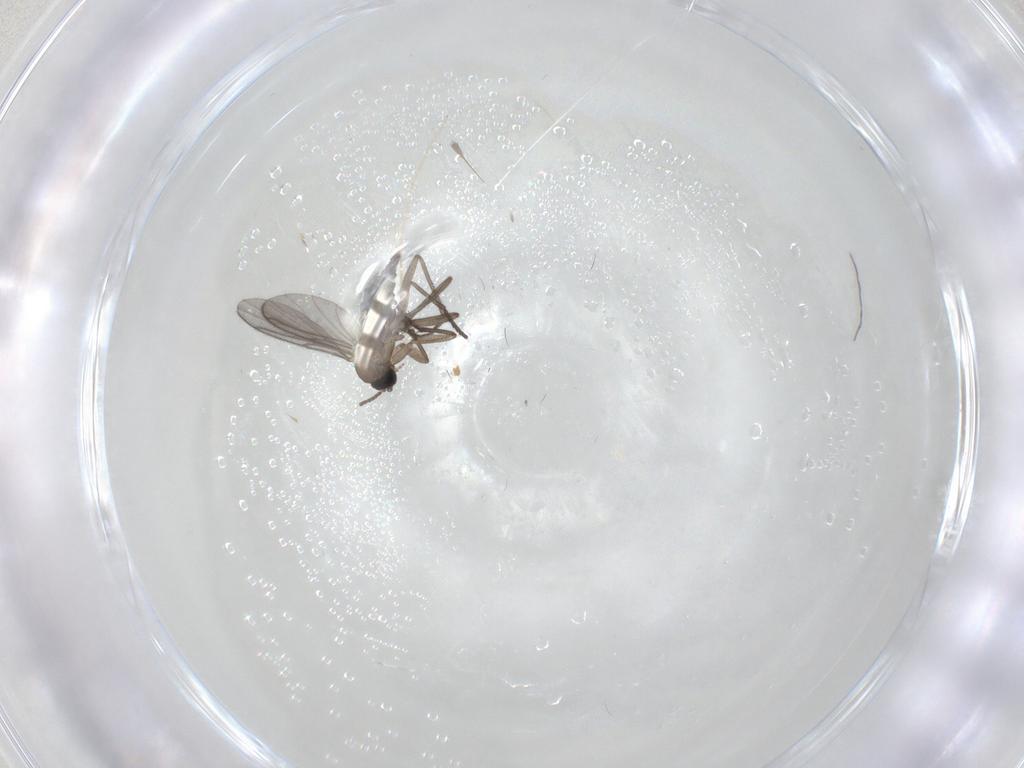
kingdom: Animalia
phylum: Arthropoda
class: Insecta
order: Diptera
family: Sciaridae
